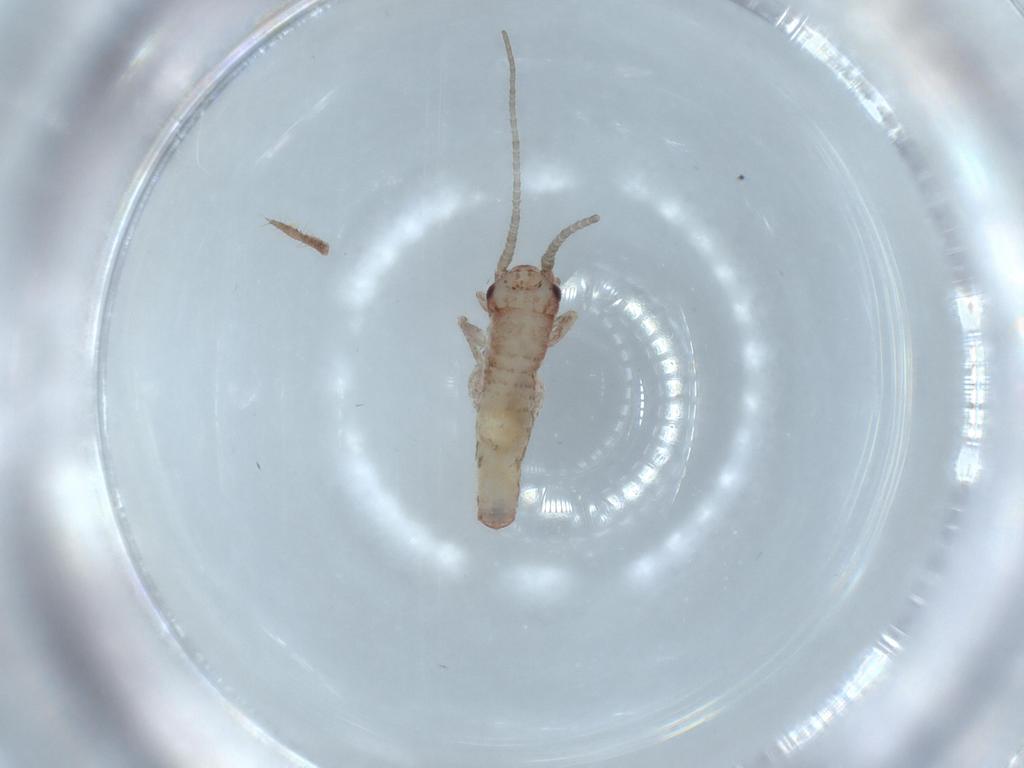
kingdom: Animalia
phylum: Arthropoda
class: Insecta
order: Orthoptera
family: Mogoplistidae
